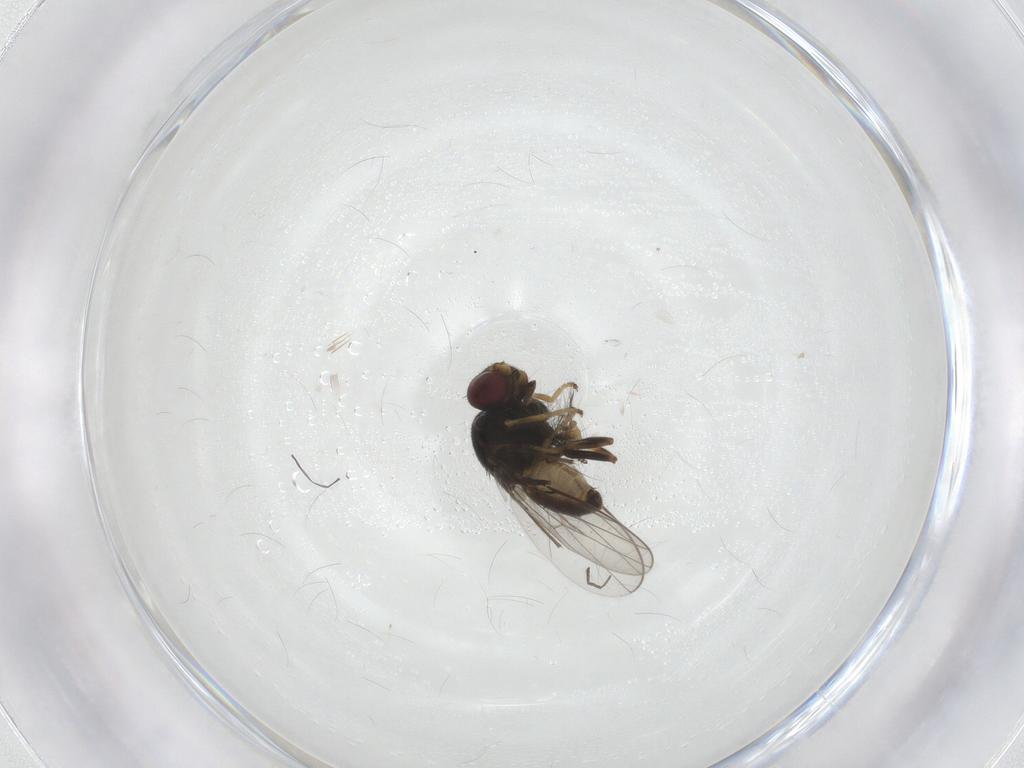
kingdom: Animalia
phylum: Arthropoda
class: Insecta
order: Diptera
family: Chloropidae
